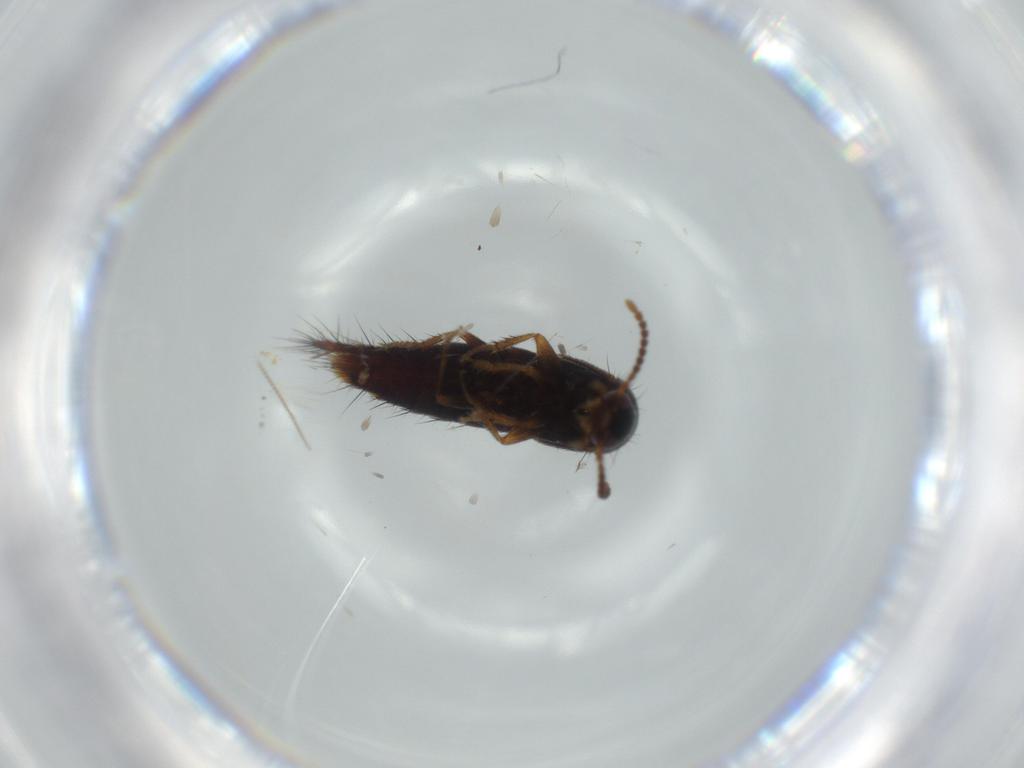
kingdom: Animalia
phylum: Arthropoda
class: Insecta
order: Coleoptera
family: Staphylinidae
